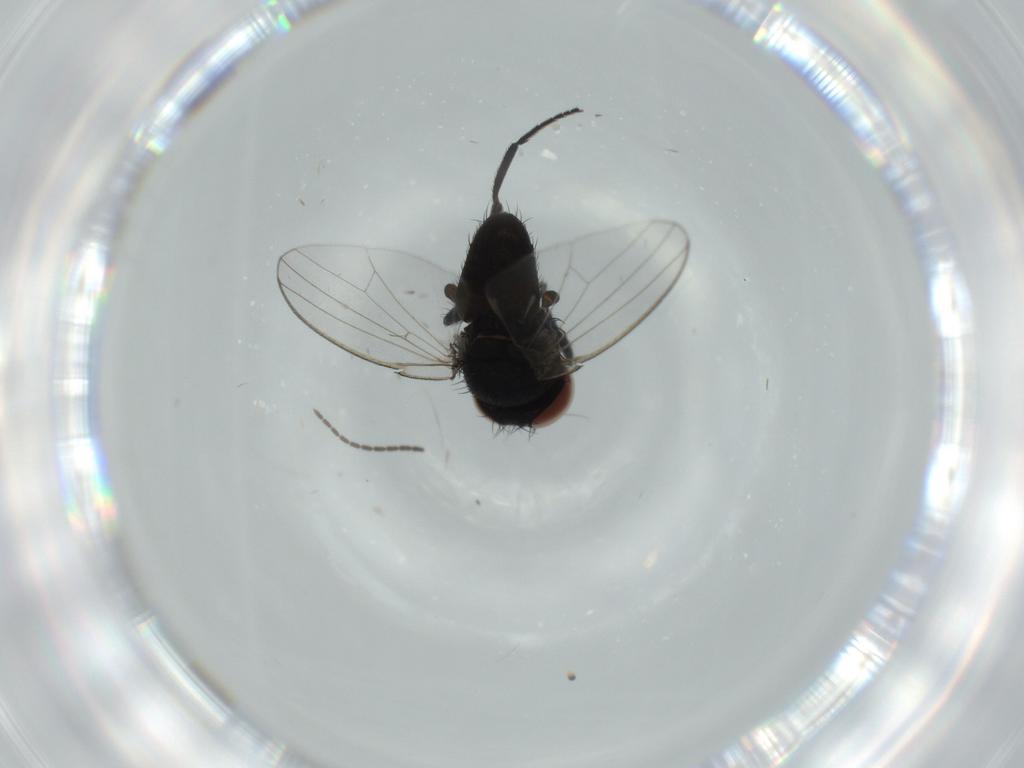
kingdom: Animalia
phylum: Arthropoda
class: Insecta
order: Diptera
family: Milichiidae
